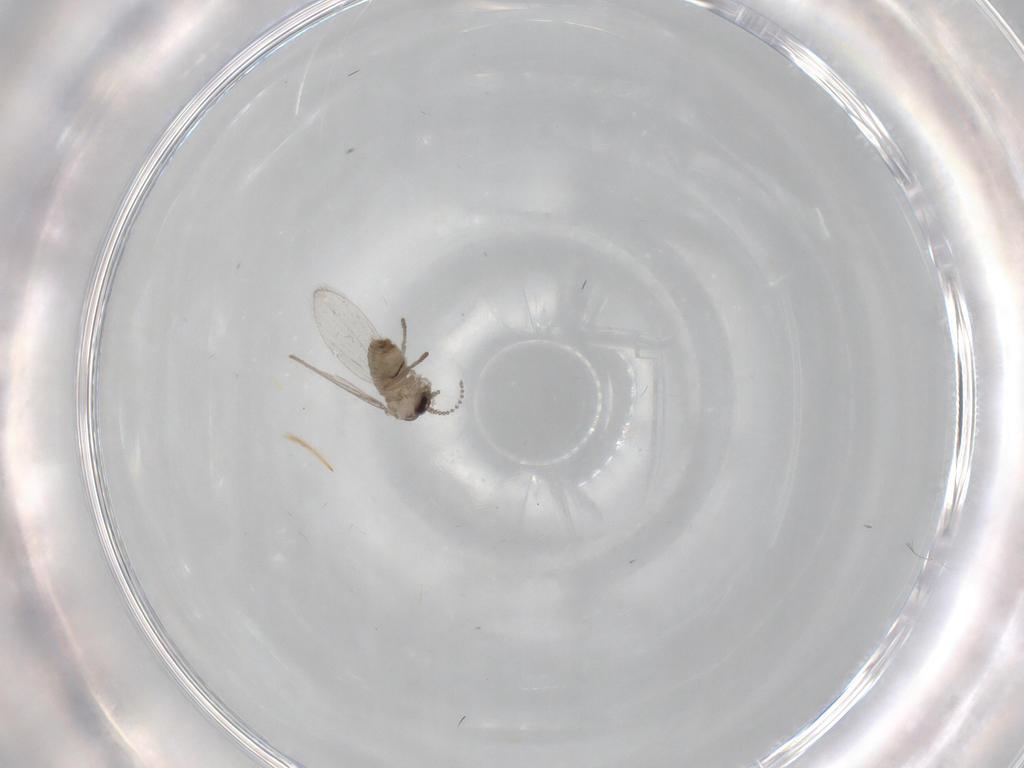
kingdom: Animalia
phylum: Arthropoda
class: Insecta
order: Diptera
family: Psychodidae
